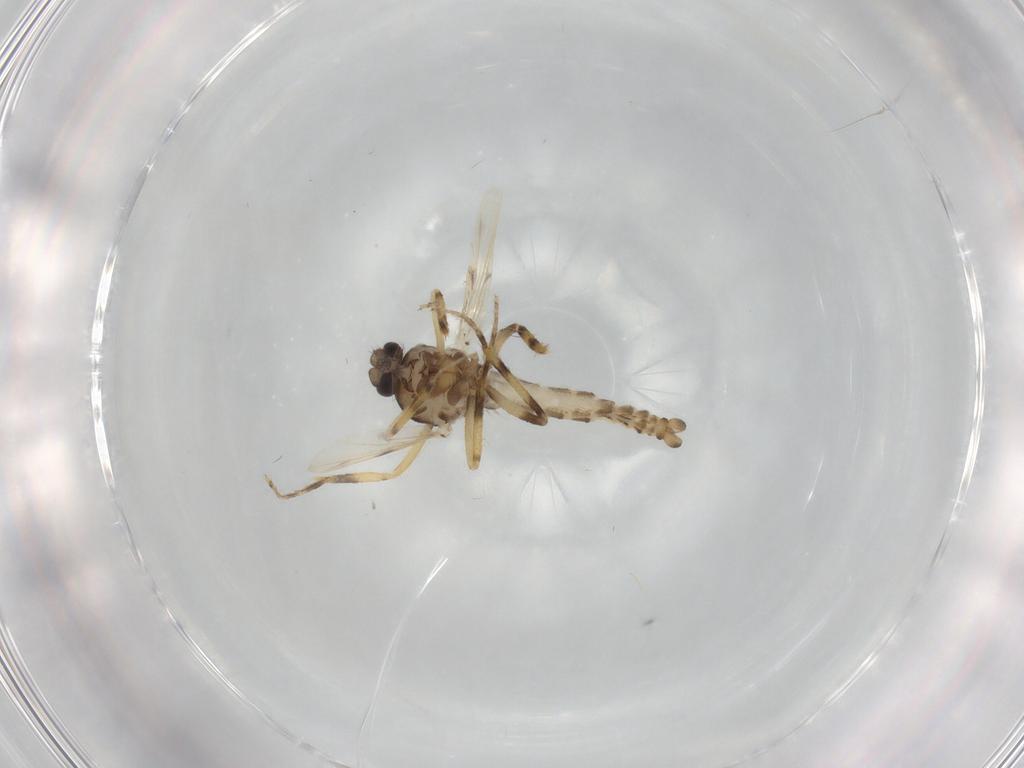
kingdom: Animalia
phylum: Arthropoda
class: Insecta
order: Diptera
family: Ceratopogonidae
